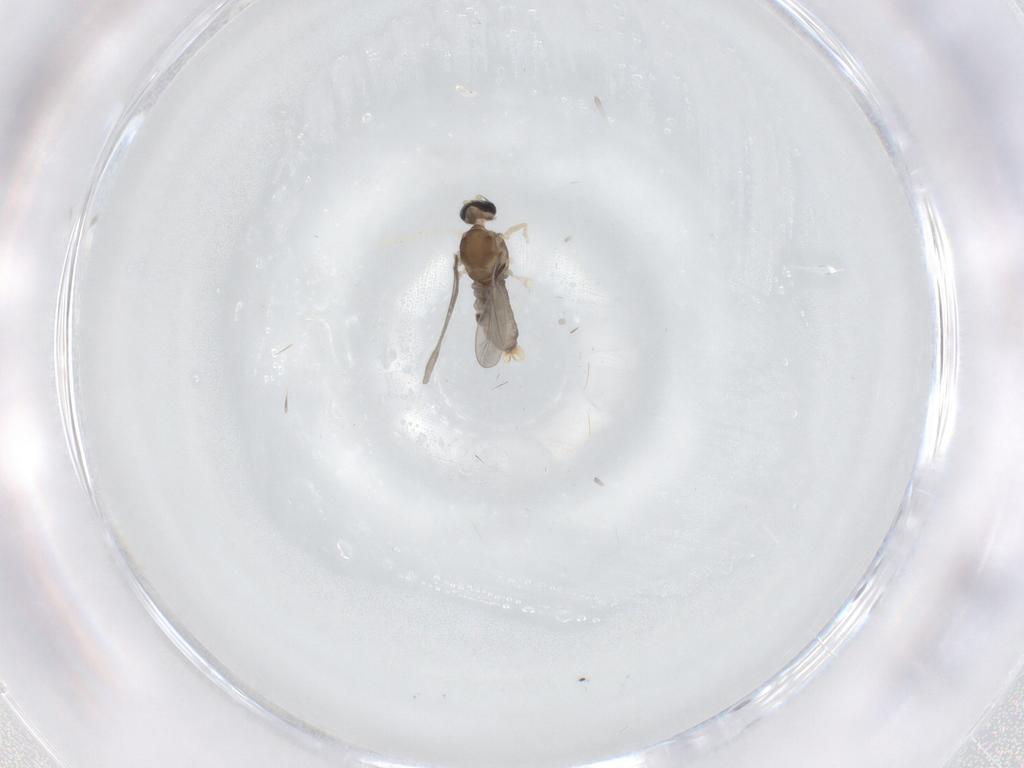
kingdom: Animalia
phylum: Arthropoda
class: Insecta
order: Diptera
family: Cecidomyiidae
